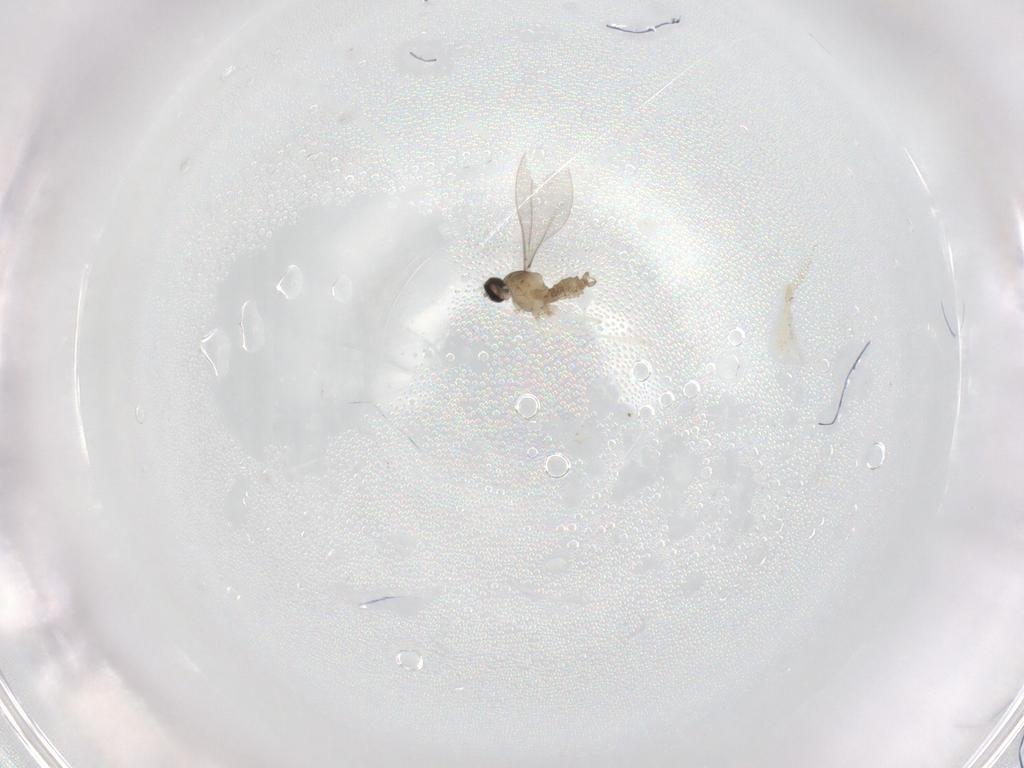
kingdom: Animalia
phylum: Arthropoda
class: Insecta
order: Diptera
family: Cecidomyiidae
